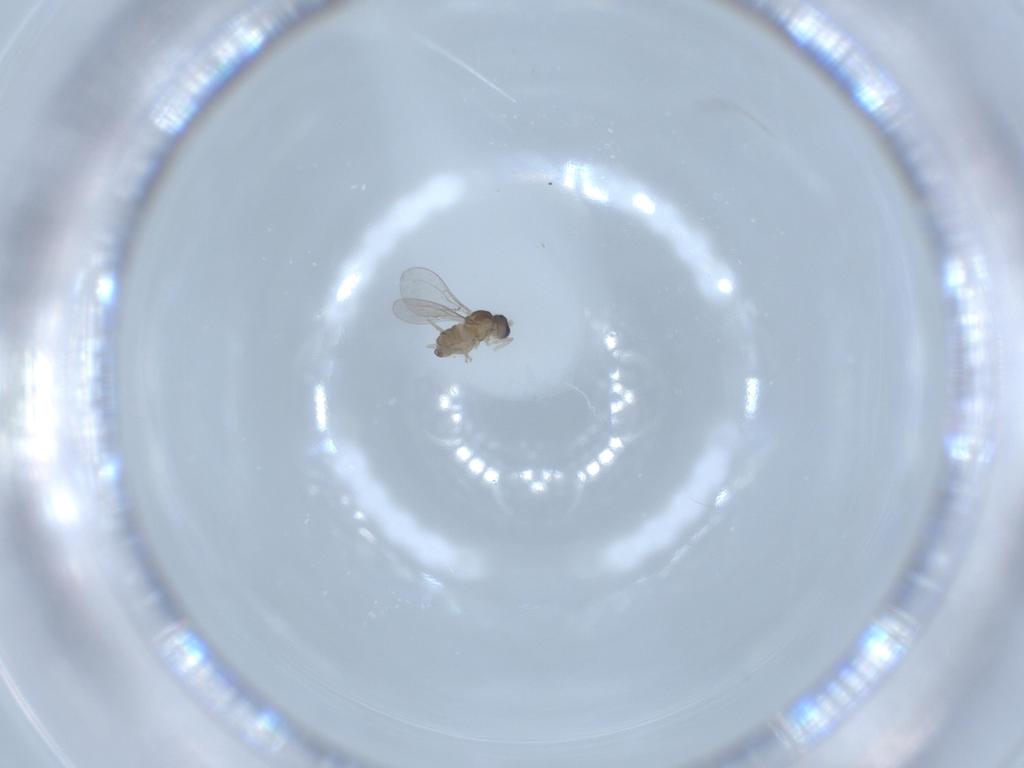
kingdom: Animalia
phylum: Arthropoda
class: Insecta
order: Diptera
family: Cecidomyiidae
